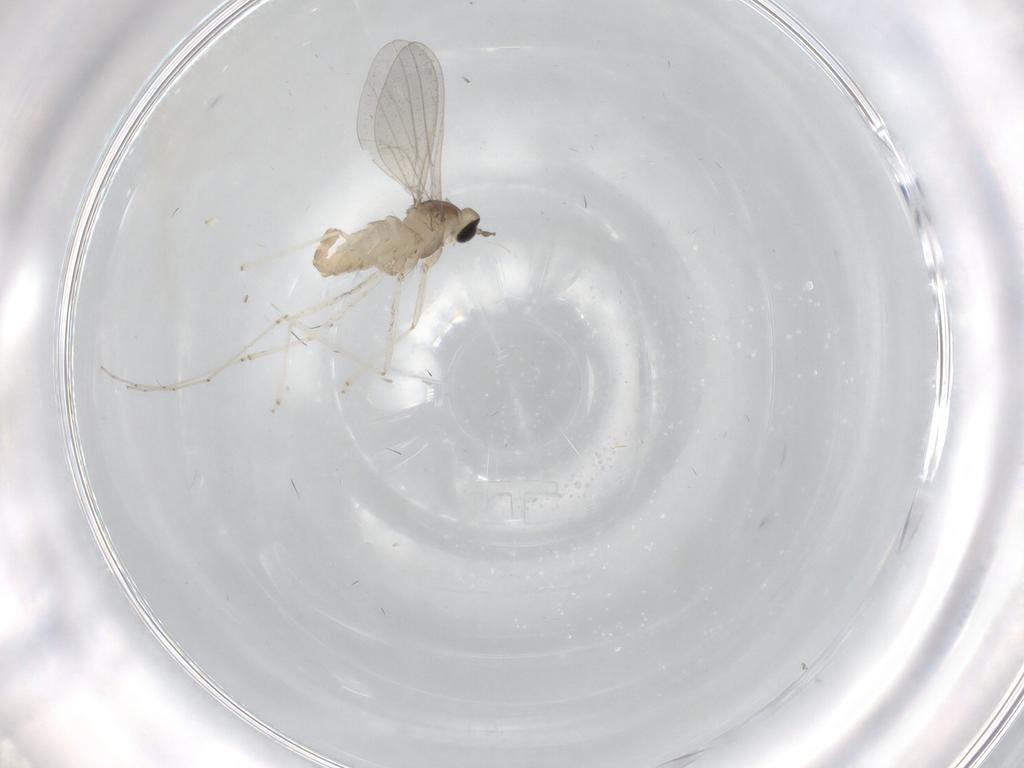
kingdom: Animalia
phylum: Arthropoda
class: Insecta
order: Diptera
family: Cecidomyiidae
